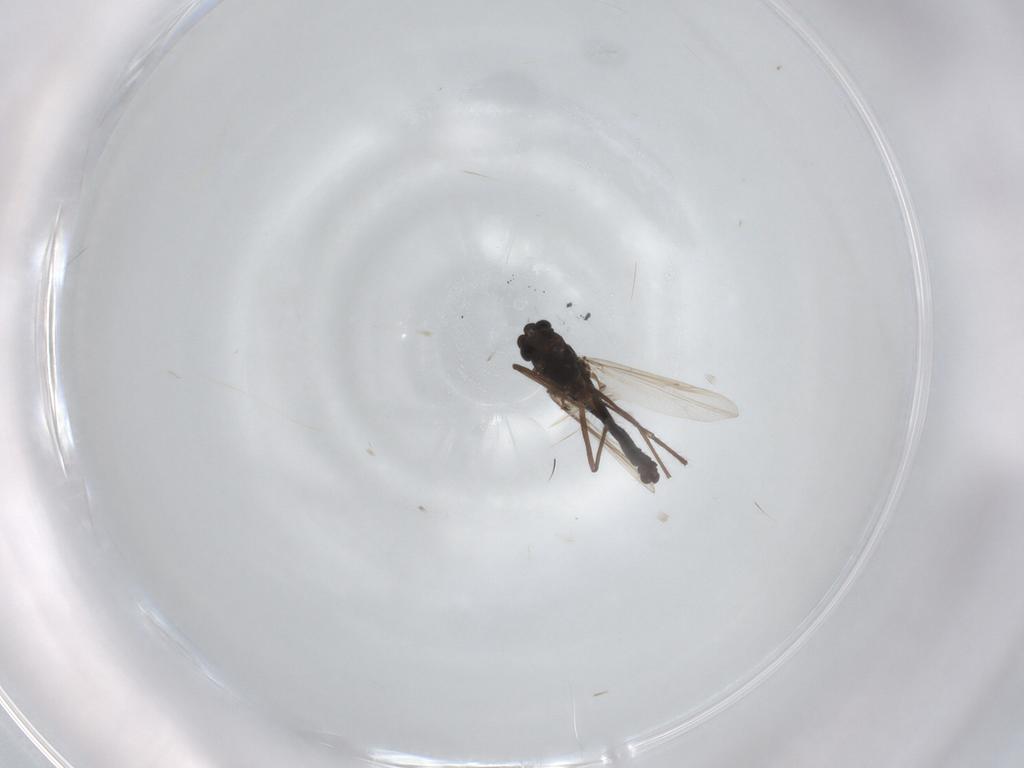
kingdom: Animalia
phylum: Arthropoda
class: Insecta
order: Diptera
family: Chironomidae
